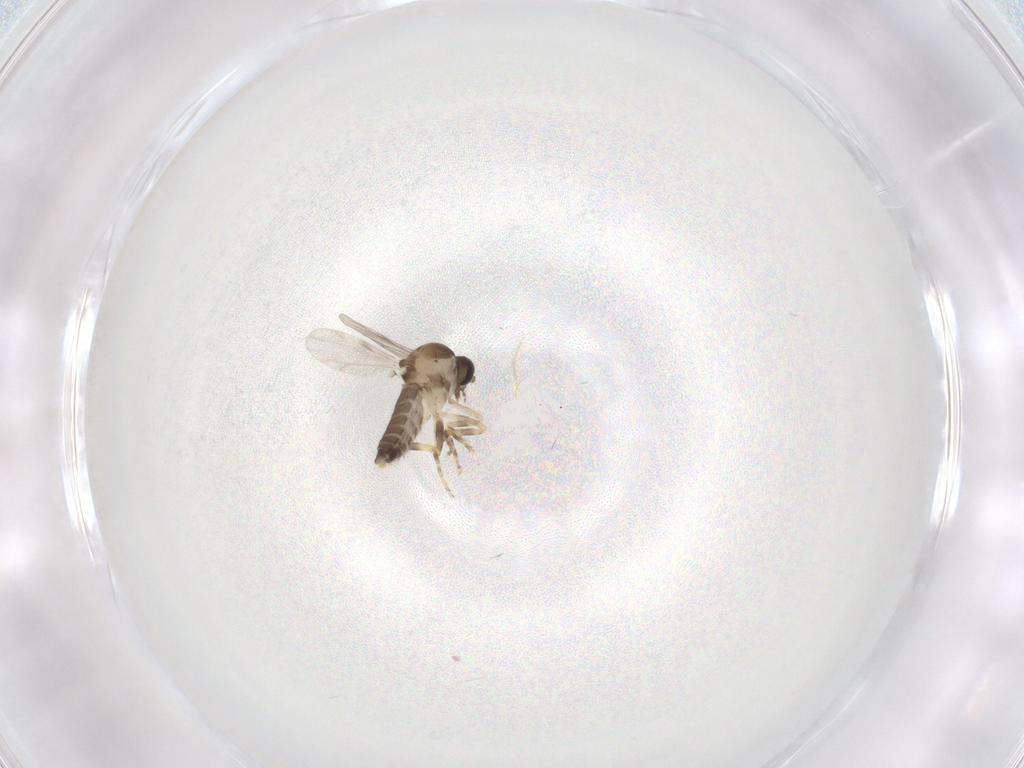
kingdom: Animalia
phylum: Arthropoda
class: Insecta
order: Diptera
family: Ceratopogonidae
